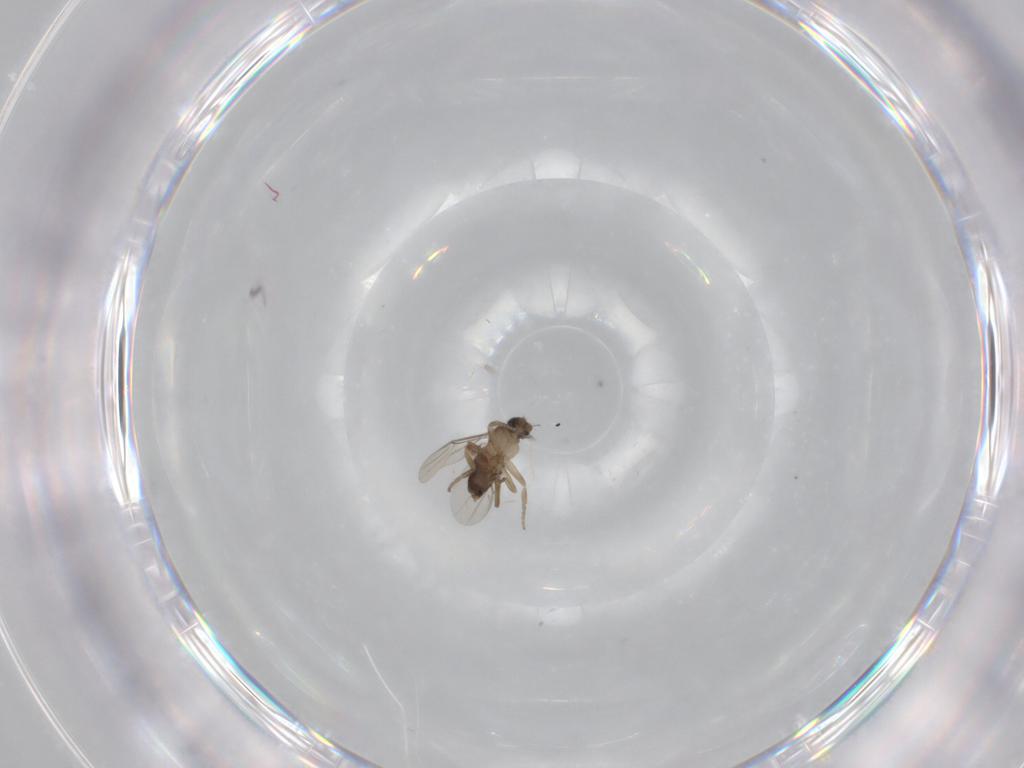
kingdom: Animalia
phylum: Arthropoda
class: Insecta
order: Diptera
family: Phoridae
